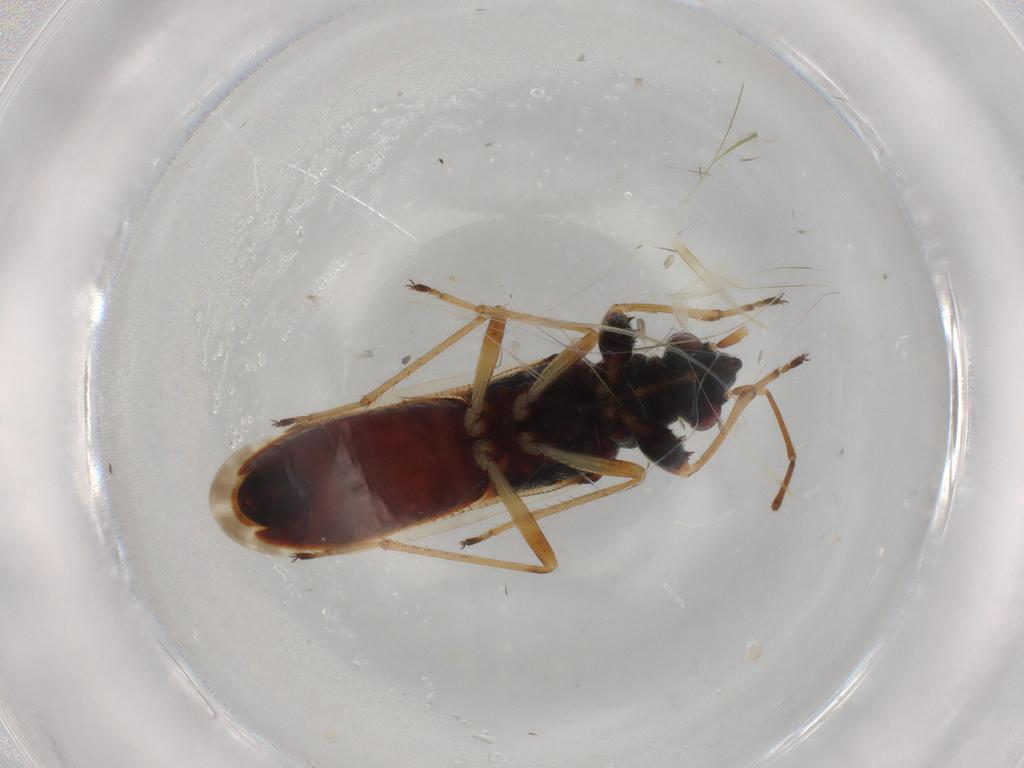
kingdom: Animalia
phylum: Arthropoda
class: Insecta
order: Hemiptera
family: Rhyparochromidae
